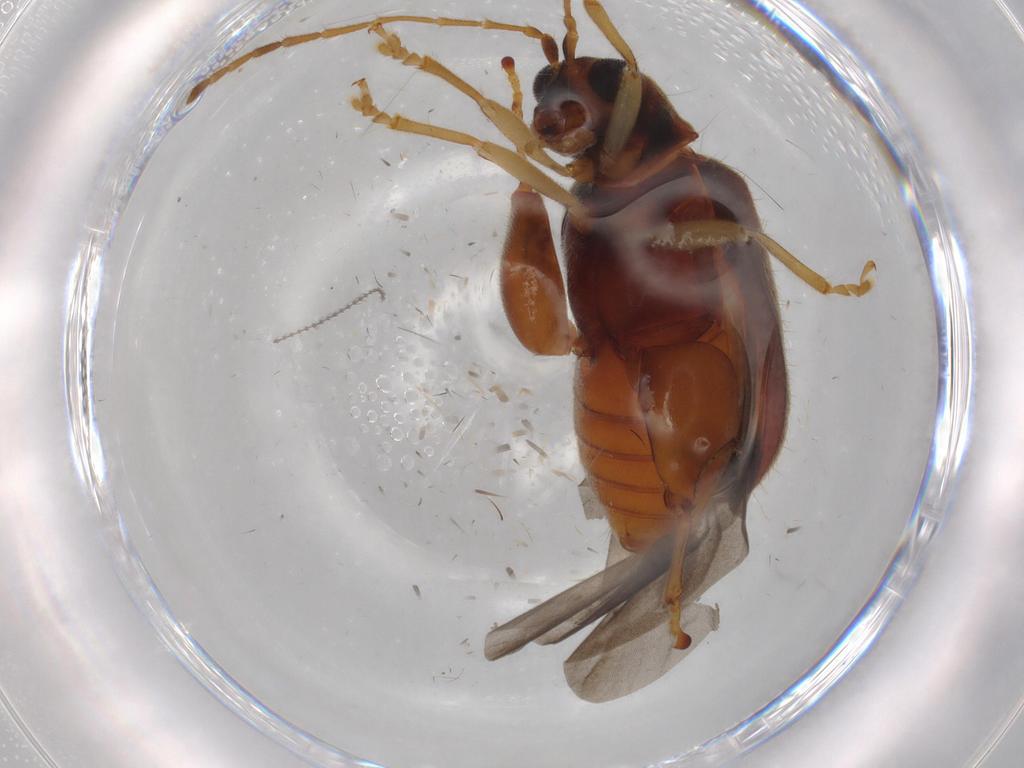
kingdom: Animalia
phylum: Arthropoda
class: Insecta
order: Coleoptera
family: Chrysomelidae
